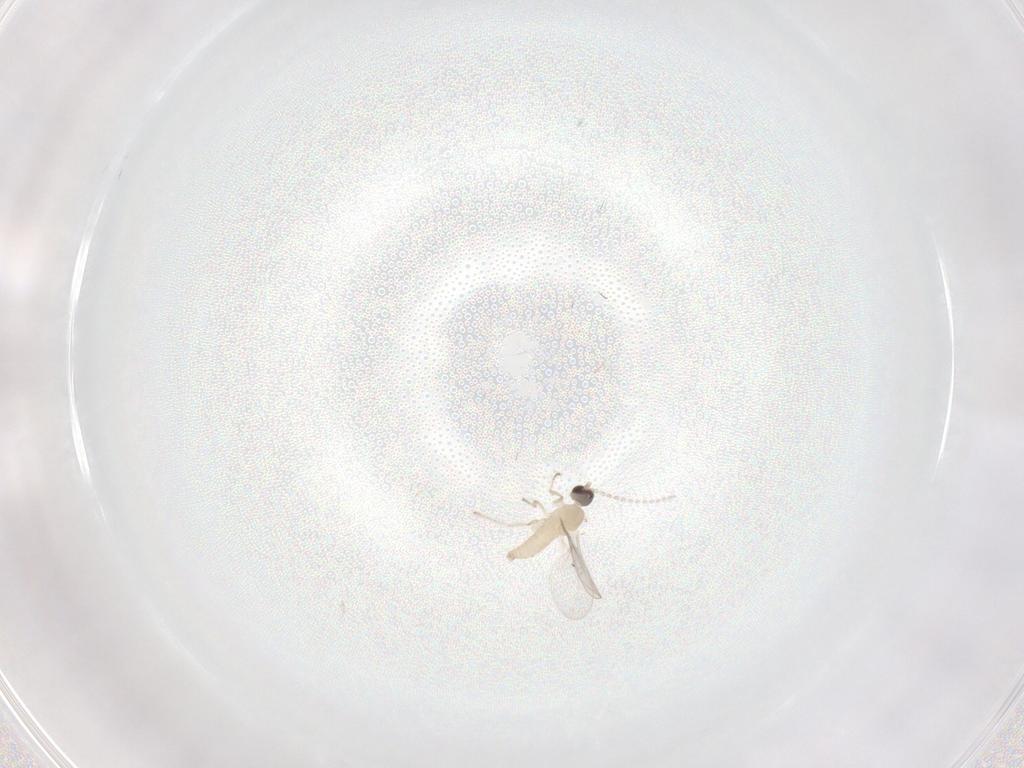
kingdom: Animalia
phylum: Arthropoda
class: Insecta
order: Diptera
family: Cecidomyiidae
